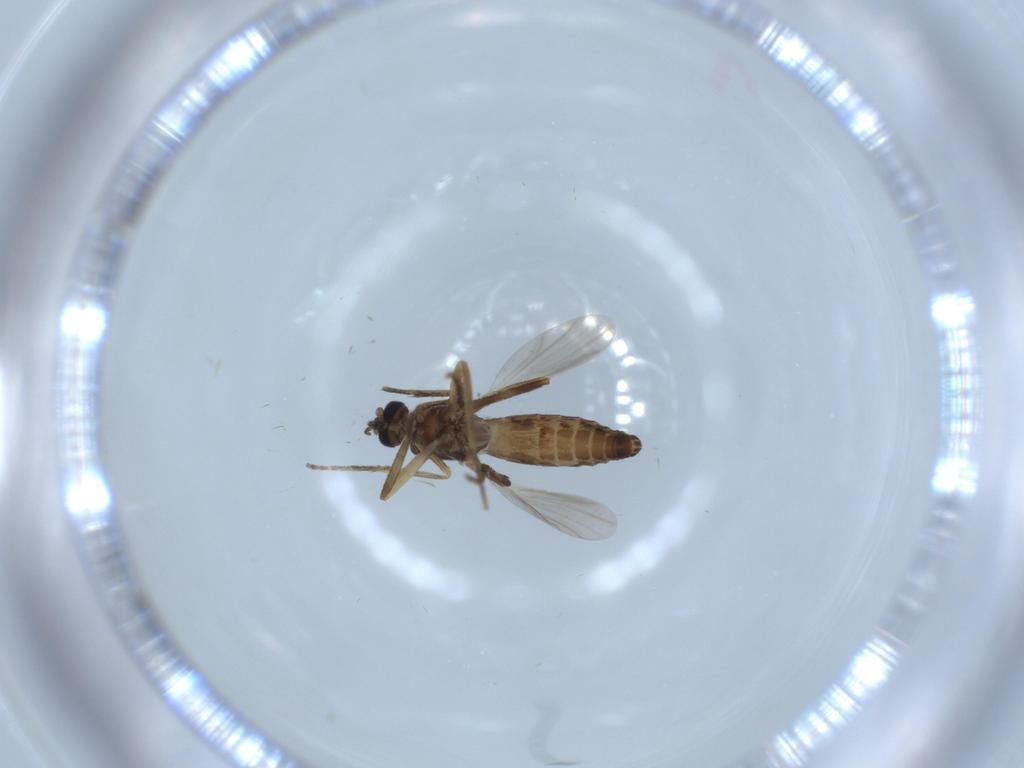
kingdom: Animalia
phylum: Arthropoda
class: Insecta
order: Diptera
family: Ceratopogonidae
